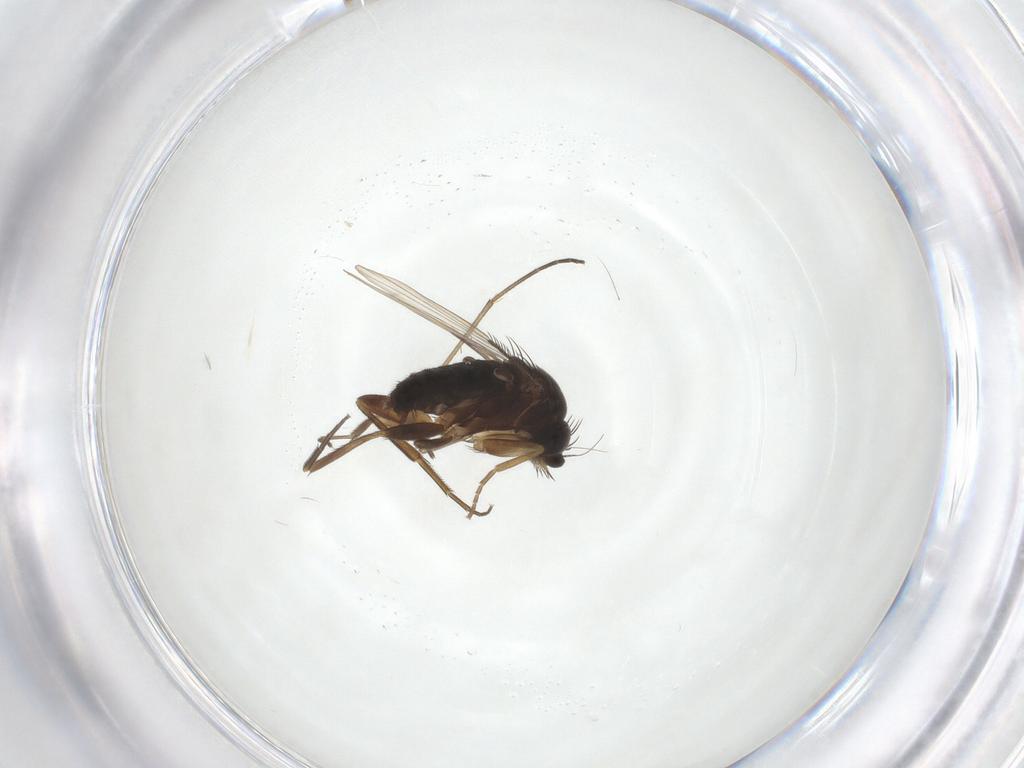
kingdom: Animalia
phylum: Arthropoda
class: Insecta
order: Diptera
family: Phoridae
